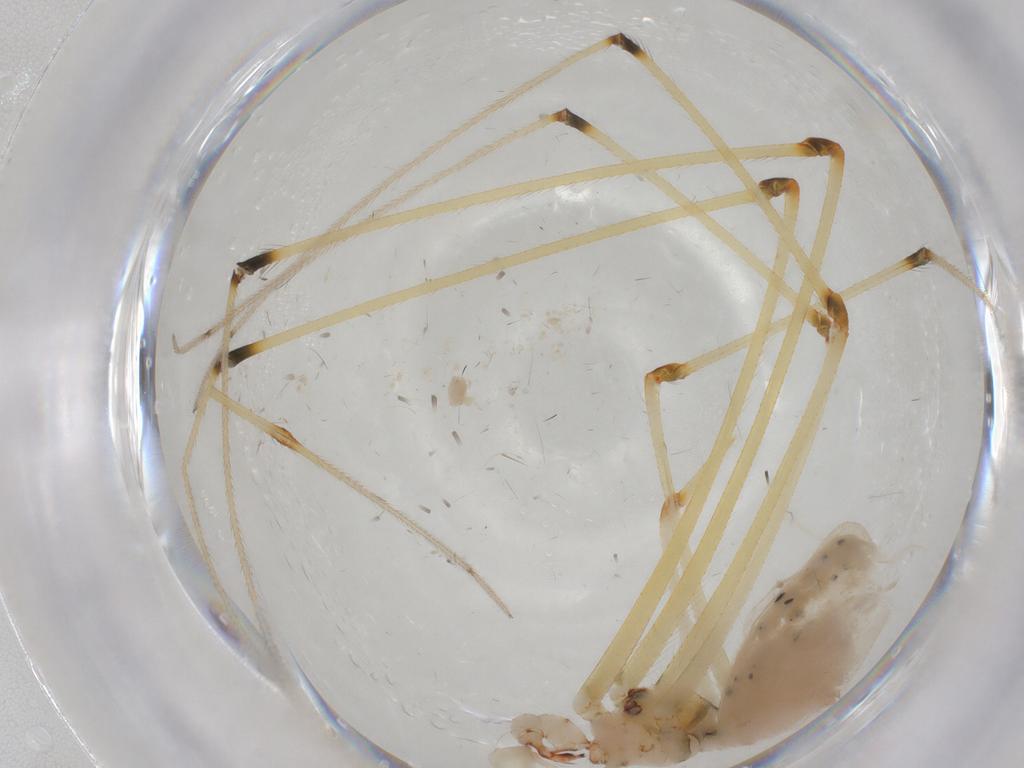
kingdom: Animalia
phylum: Arthropoda
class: Arachnida
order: Araneae
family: Pholcidae
